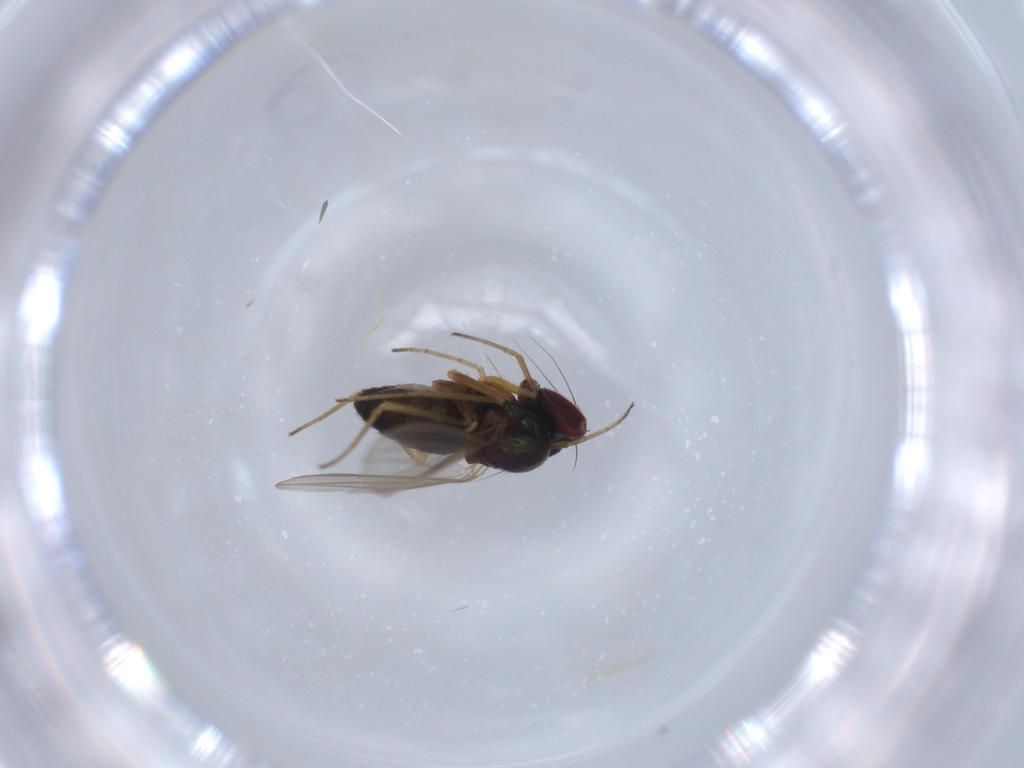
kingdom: Animalia
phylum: Arthropoda
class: Insecta
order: Diptera
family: Dolichopodidae
